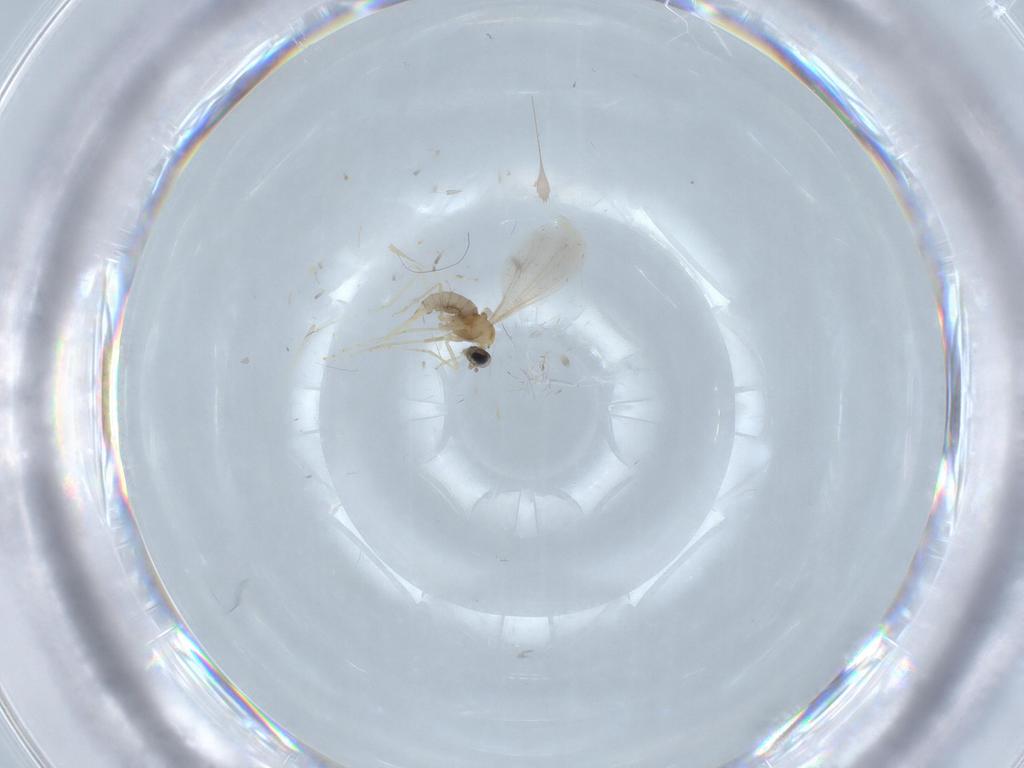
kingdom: Animalia
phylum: Arthropoda
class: Insecta
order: Diptera
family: Cecidomyiidae
